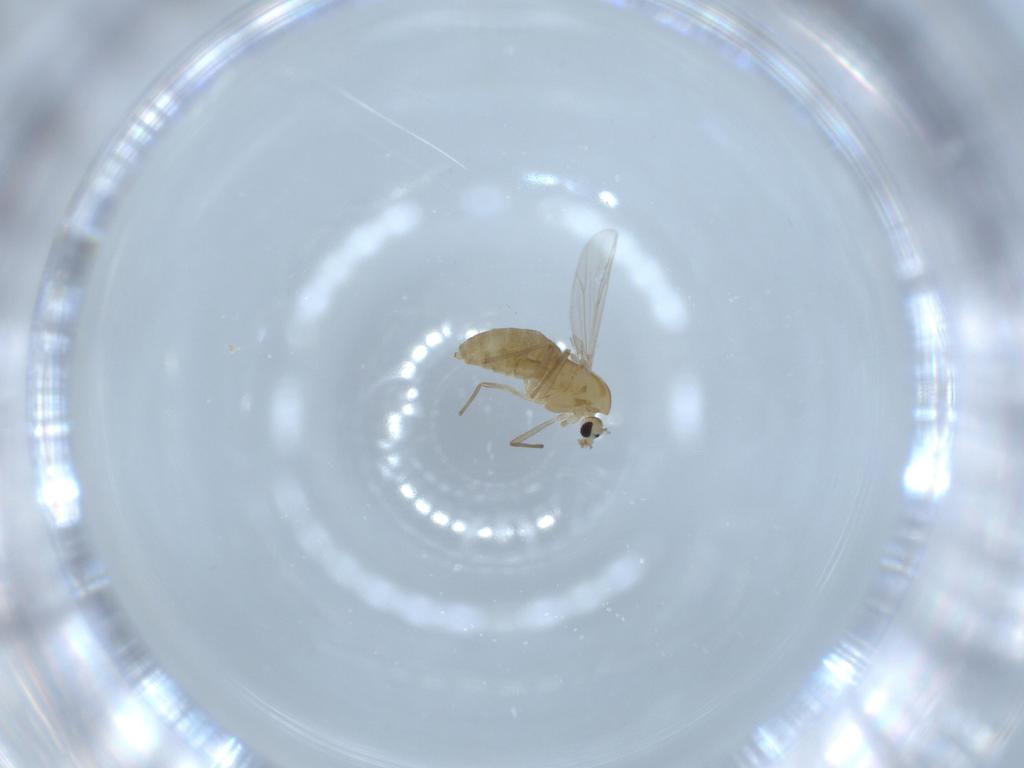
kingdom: Animalia
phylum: Arthropoda
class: Insecta
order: Diptera
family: Chironomidae
